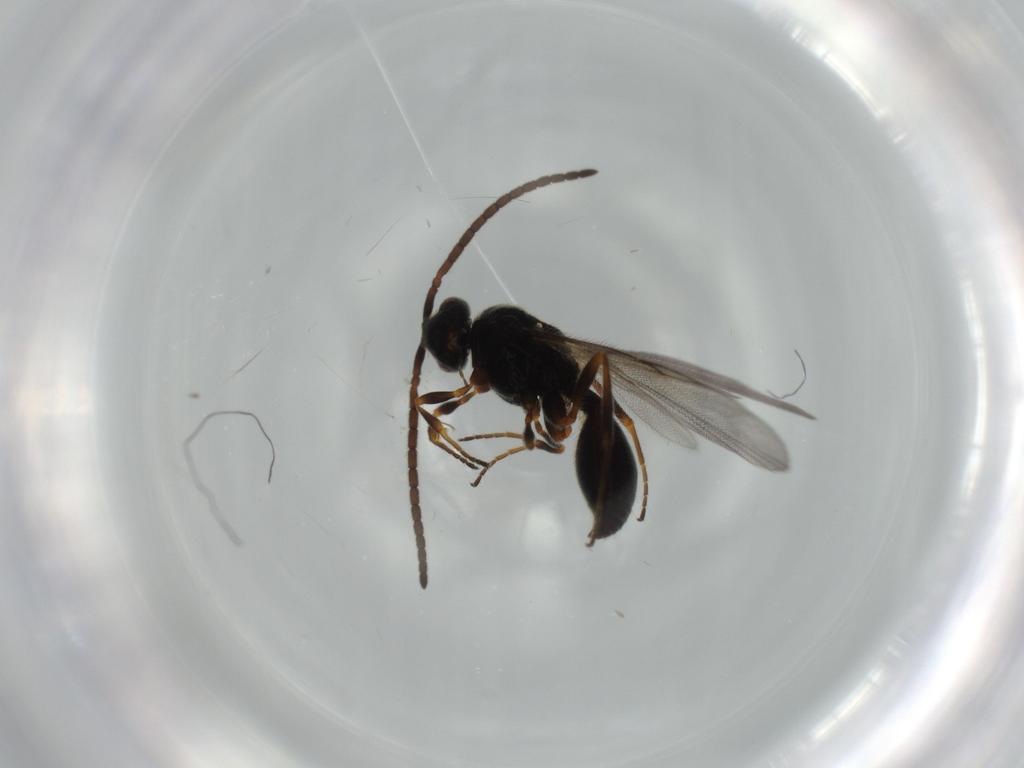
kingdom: Animalia
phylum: Arthropoda
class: Insecta
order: Hymenoptera
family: Diapriidae
